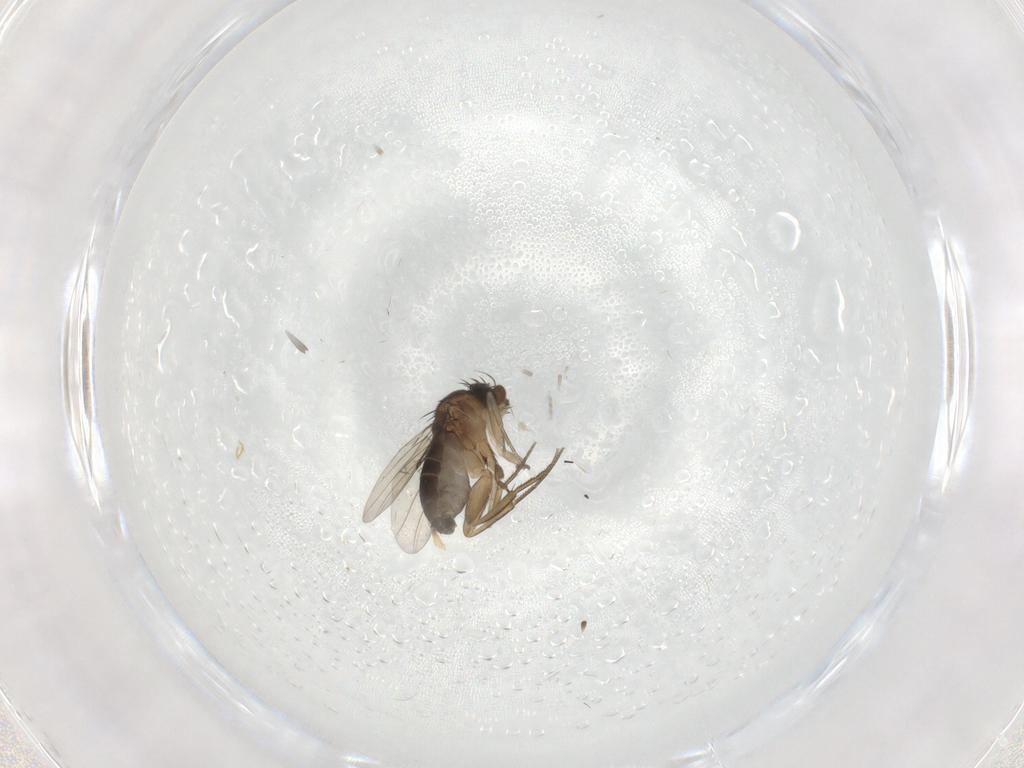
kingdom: Animalia
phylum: Arthropoda
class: Insecta
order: Diptera
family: Phoridae
